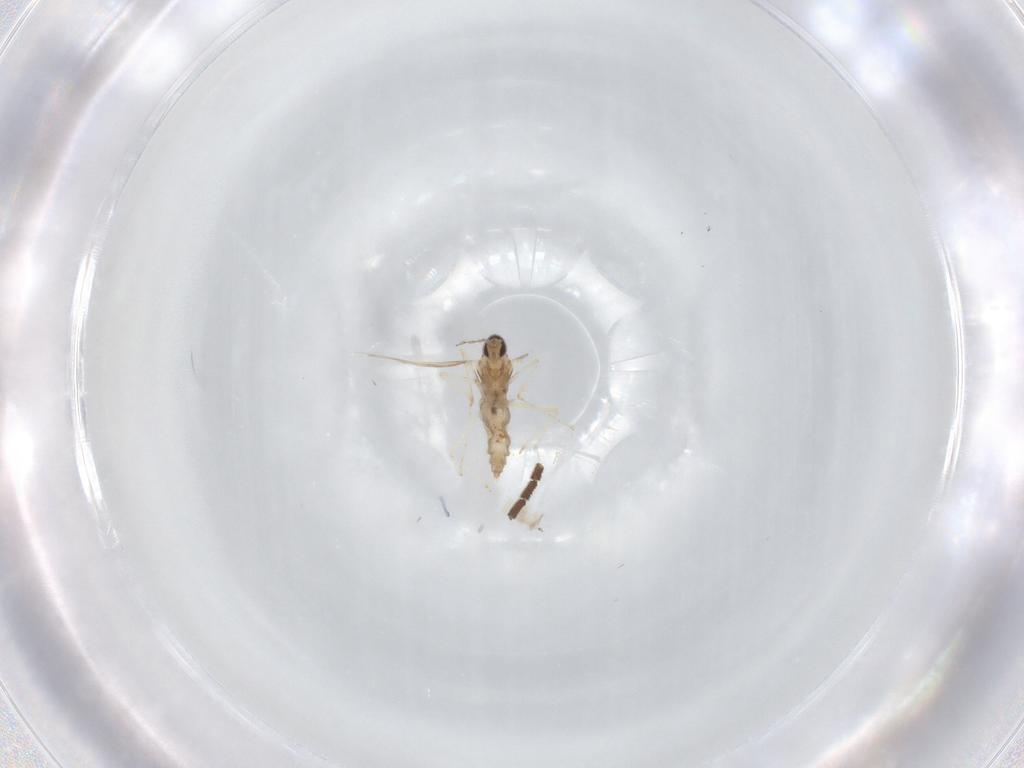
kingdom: Animalia
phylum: Arthropoda
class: Insecta
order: Diptera
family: Cecidomyiidae
